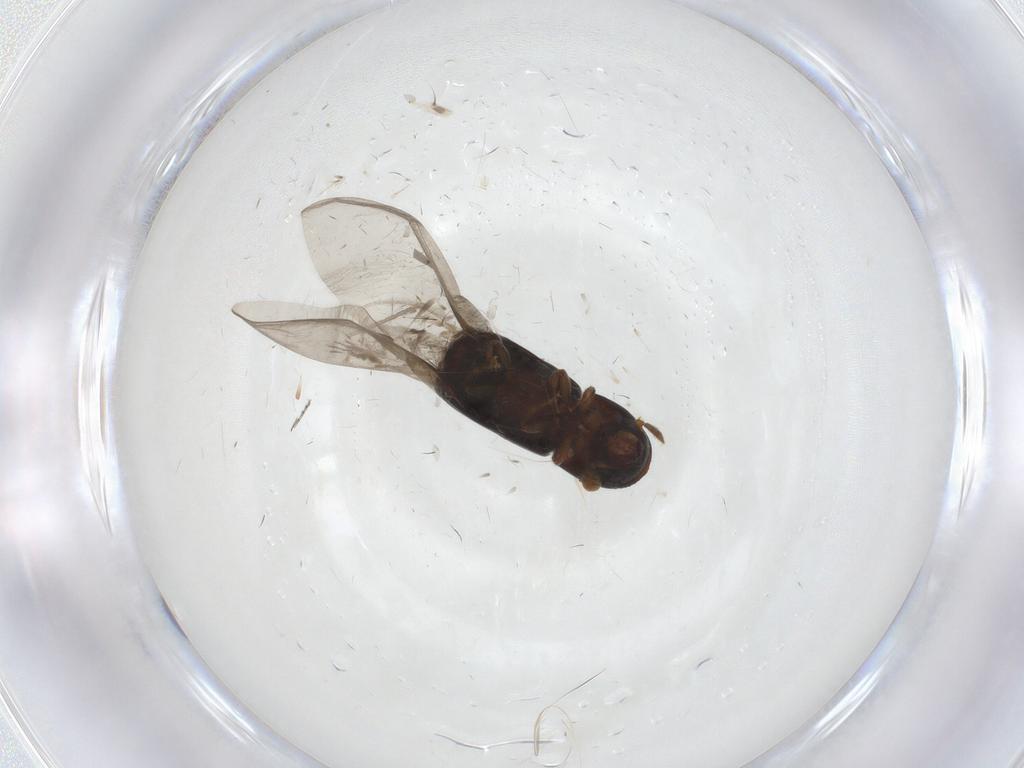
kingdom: Animalia
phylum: Arthropoda
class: Insecta
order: Coleoptera
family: Curculionidae
